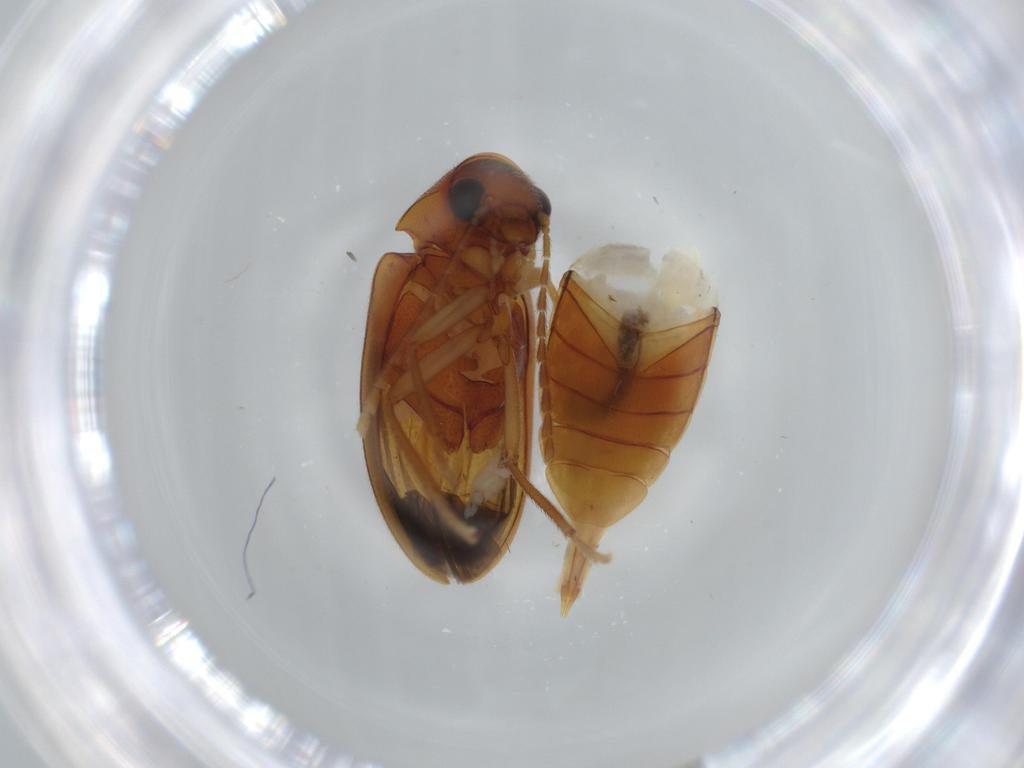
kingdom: Animalia
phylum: Arthropoda
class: Insecta
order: Coleoptera
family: Ptilodactylidae
